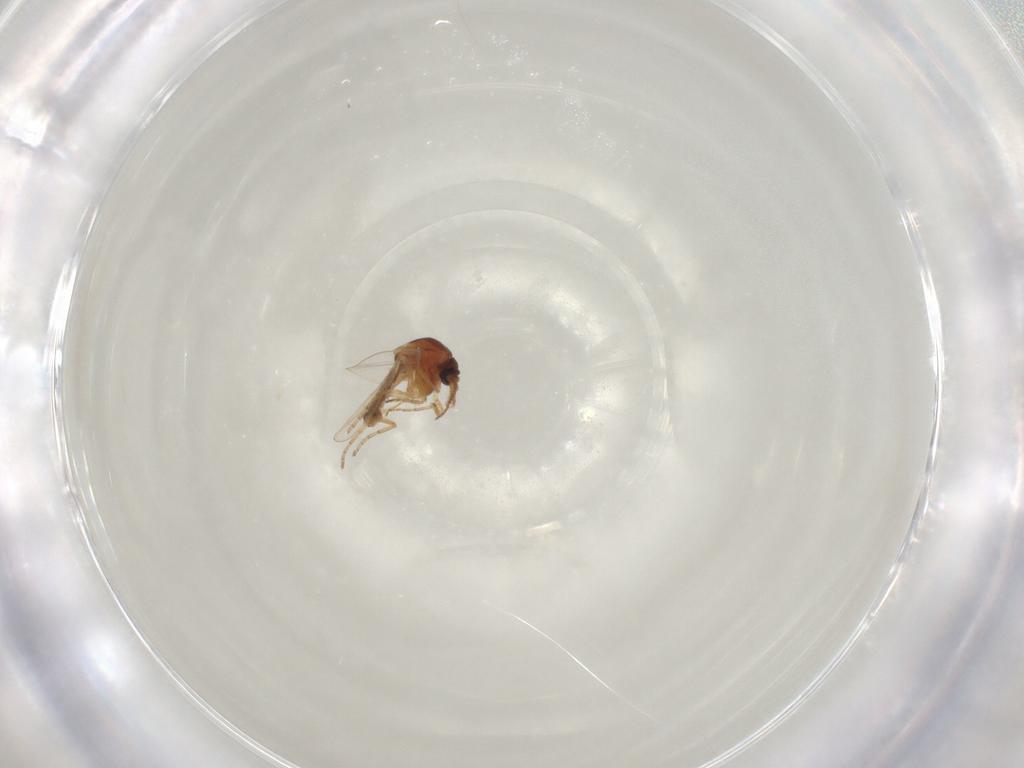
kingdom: Animalia
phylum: Arthropoda
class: Insecta
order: Diptera
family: Ceratopogonidae
